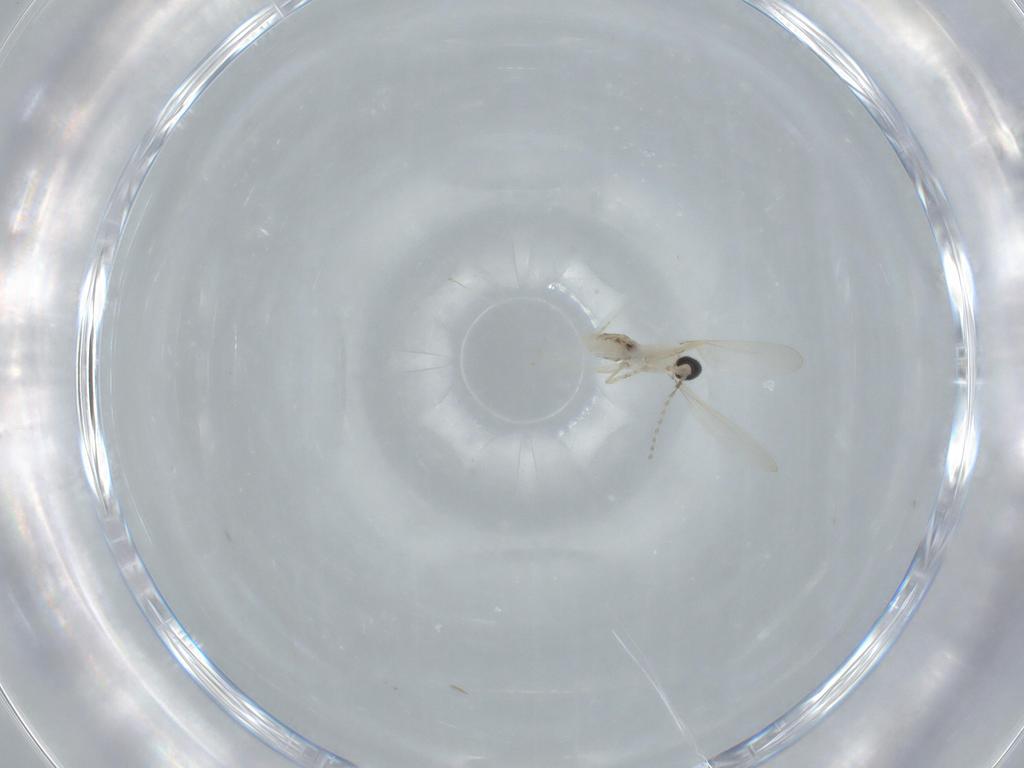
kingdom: Animalia
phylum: Arthropoda
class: Insecta
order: Diptera
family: Cecidomyiidae
